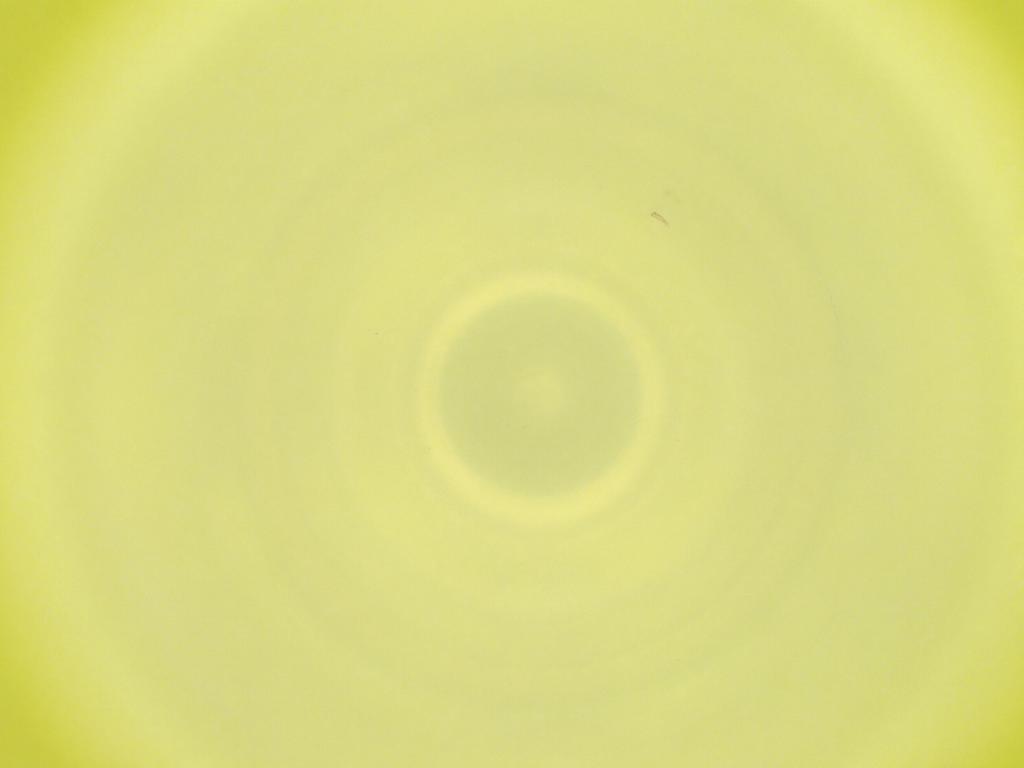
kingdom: Animalia
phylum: Arthropoda
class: Insecta
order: Diptera
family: Cecidomyiidae
